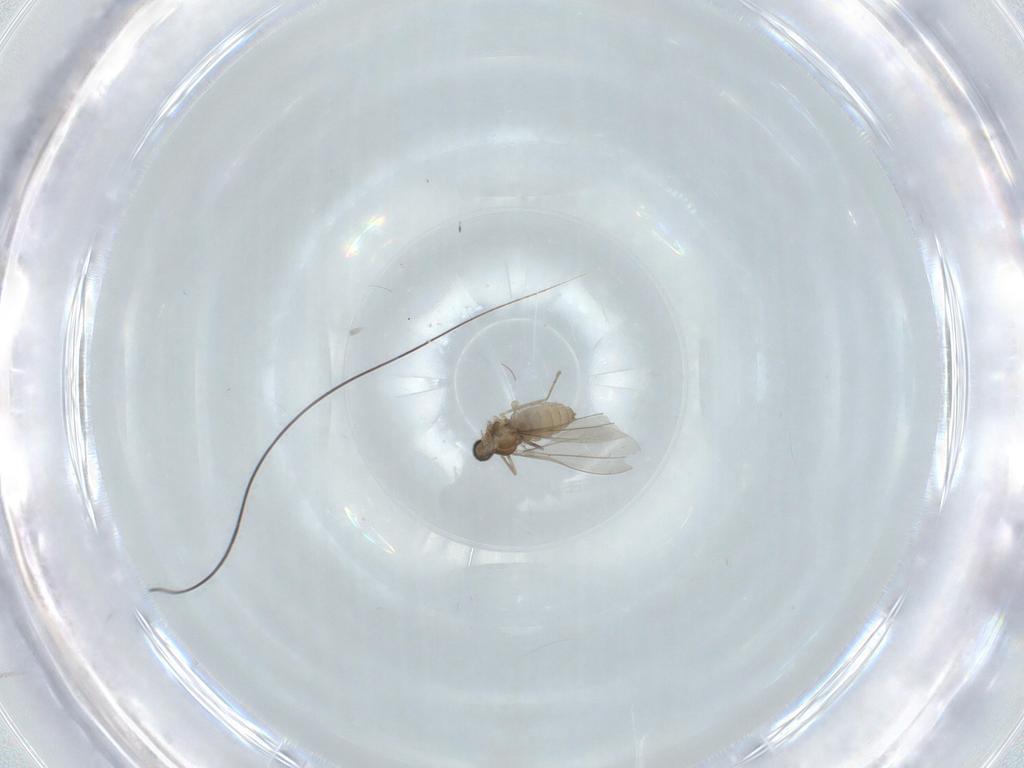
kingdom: Animalia
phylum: Arthropoda
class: Insecta
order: Diptera
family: Cecidomyiidae
